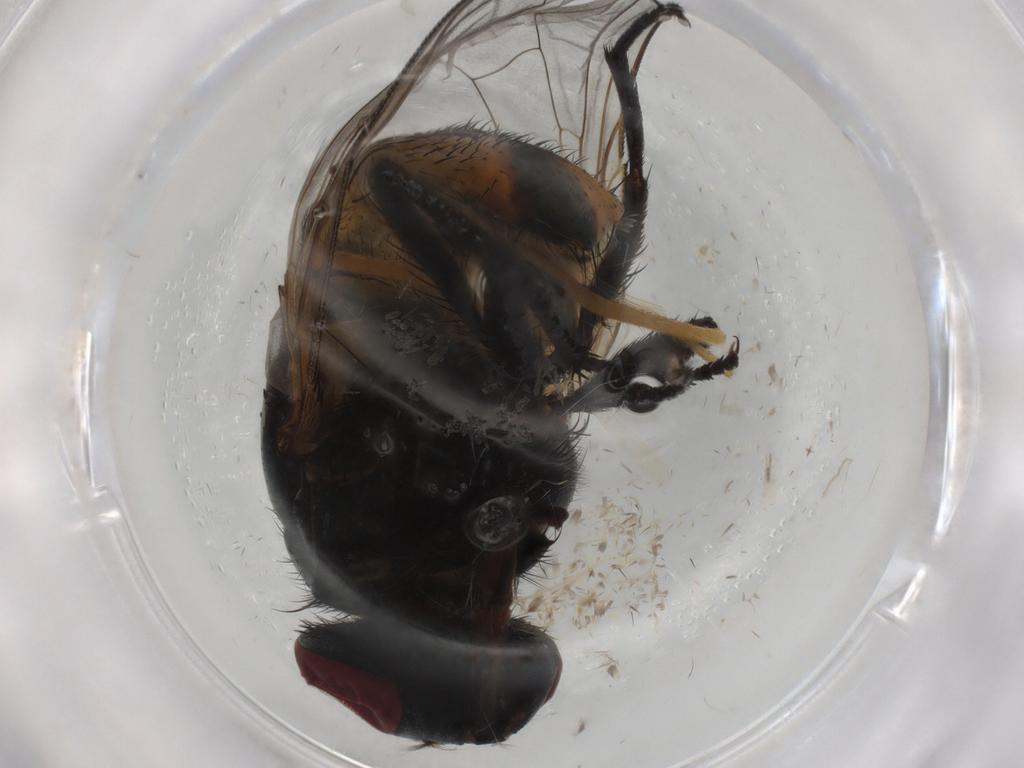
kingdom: Animalia
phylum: Arthropoda
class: Insecta
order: Diptera
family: Muscidae
